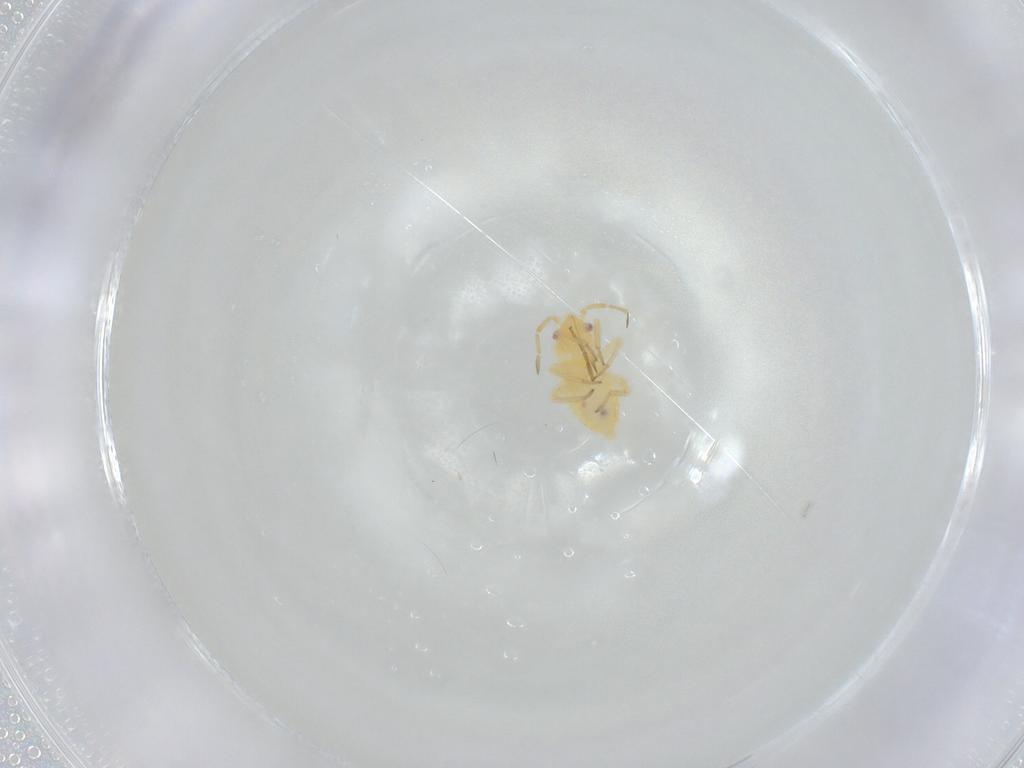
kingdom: Animalia
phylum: Arthropoda
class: Insecta
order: Diptera
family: Chironomidae
